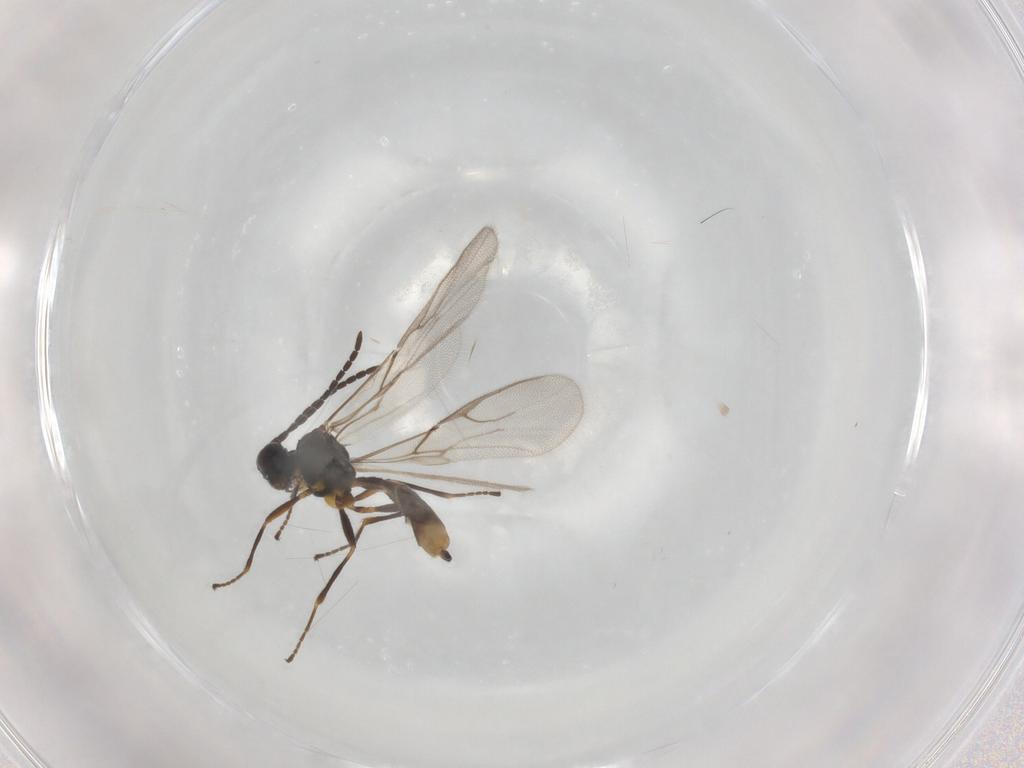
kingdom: Animalia
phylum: Arthropoda
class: Insecta
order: Hymenoptera
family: Braconidae
